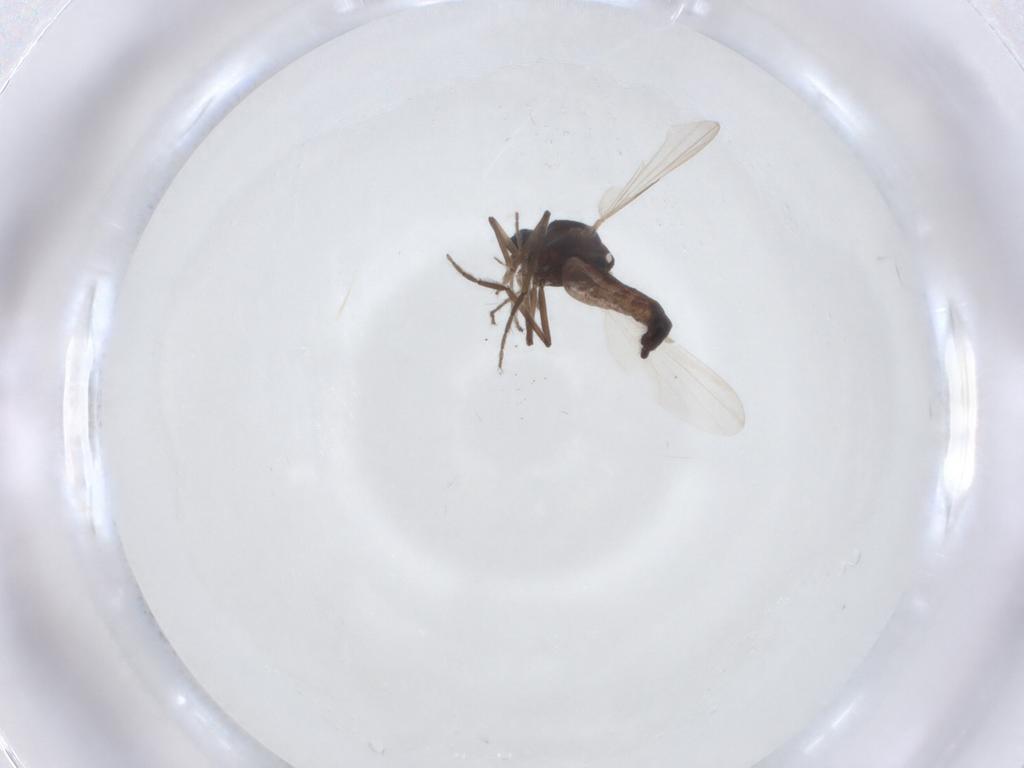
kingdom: Animalia
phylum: Arthropoda
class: Insecta
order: Diptera
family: Ceratopogonidae
